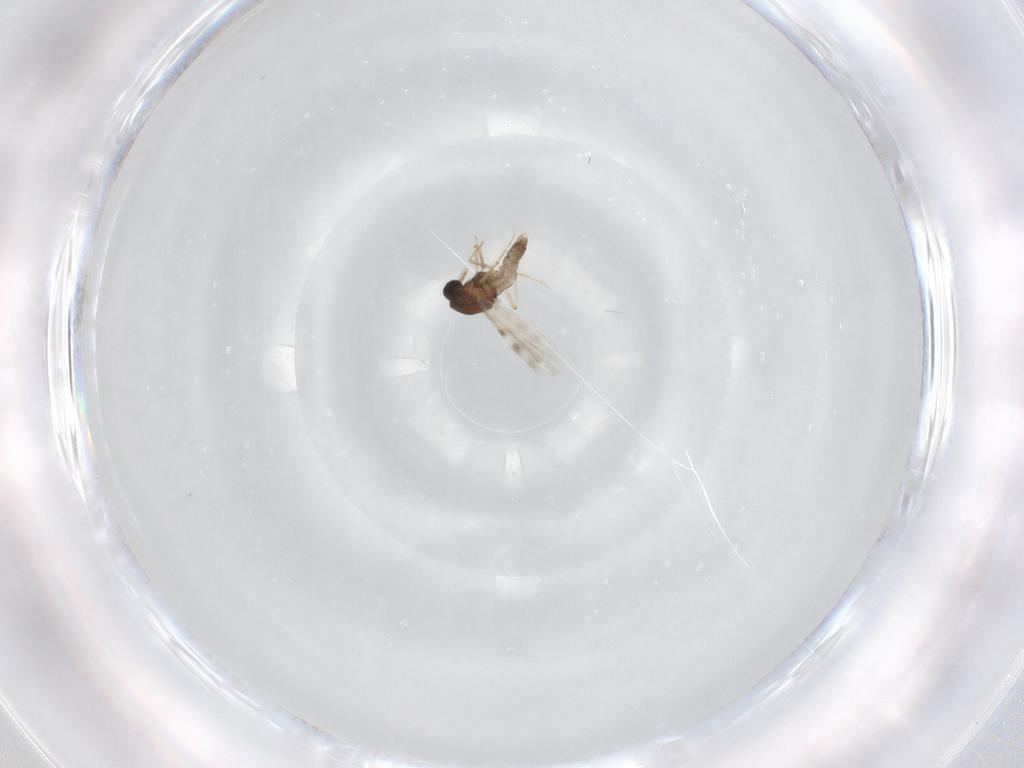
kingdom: Animalia
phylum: Arthropoda
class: Insecta
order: Diptera
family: Ceratopogonidae
